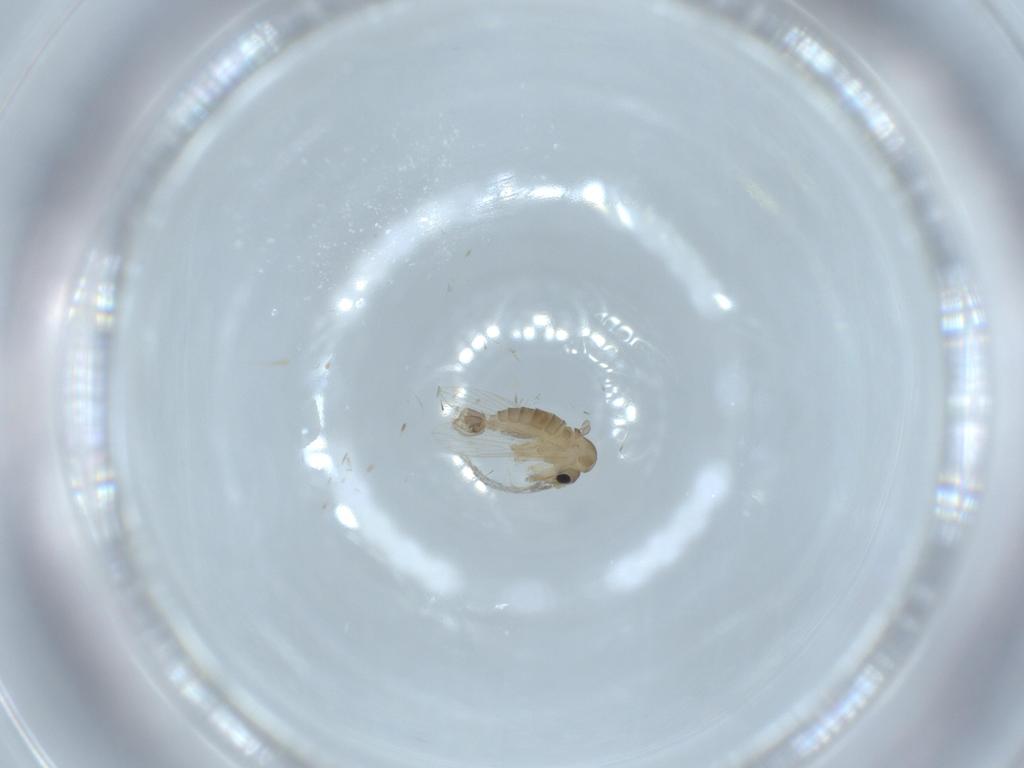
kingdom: Animalia
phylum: Arthropoda
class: Insecta
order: Diptera
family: Psychodidae
